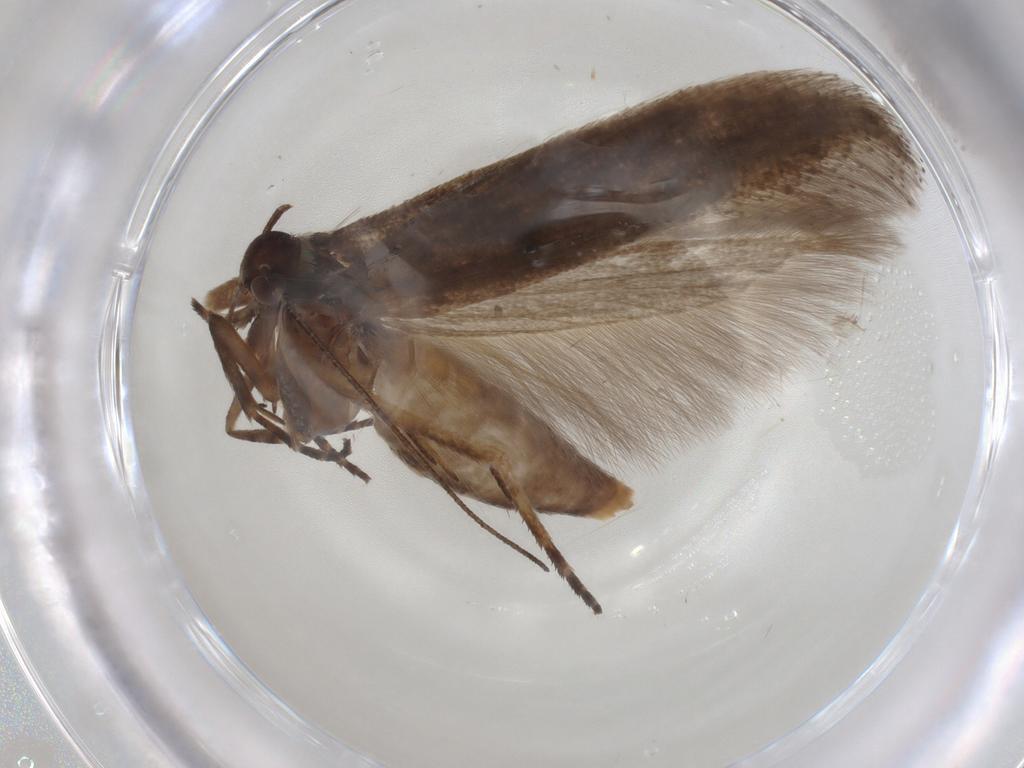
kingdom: Animalia
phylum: Arthropoda
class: Insecta
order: Lepidoptera
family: Gelechiidae
